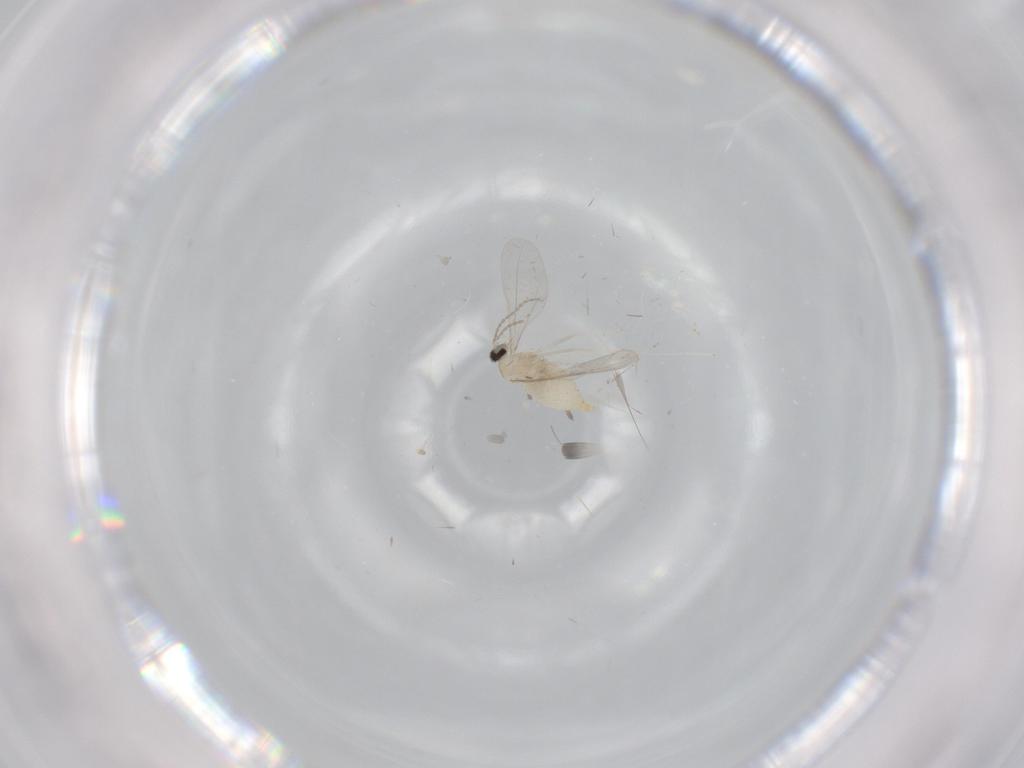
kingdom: Animalia
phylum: Arthropoda
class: Insecta
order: Diptera
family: Cecidomyiidae
